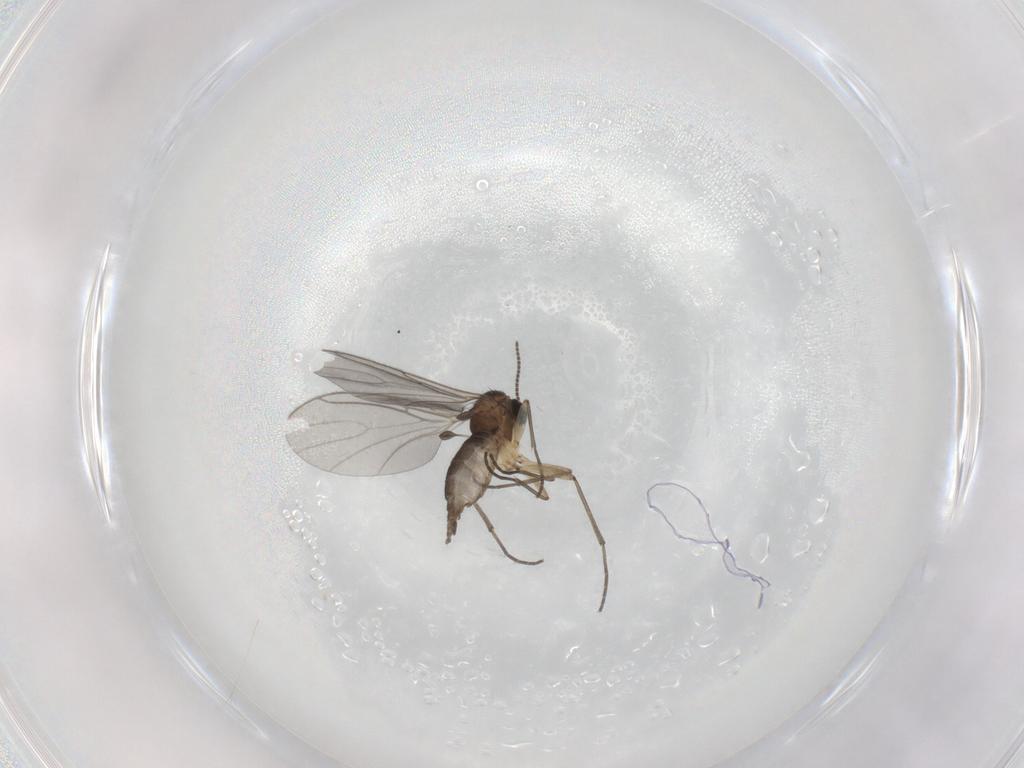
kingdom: Animalia
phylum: Arthropoda
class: Insecta
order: Diptera
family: Sciaridae
